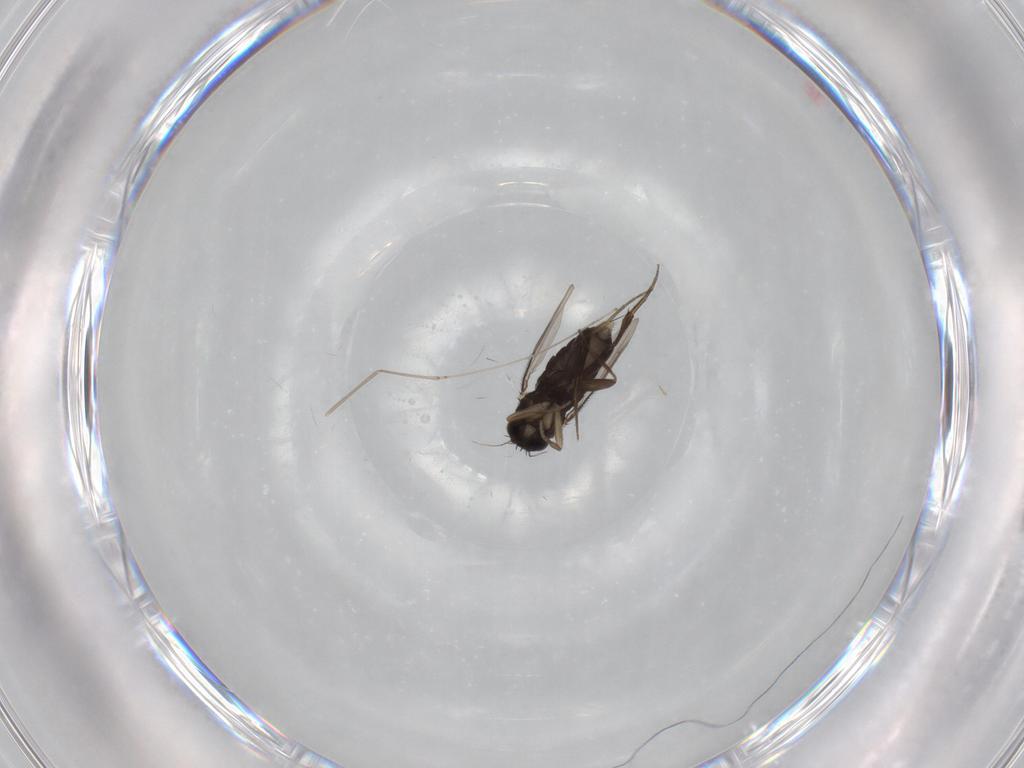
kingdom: Animalia
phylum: Arthropoda
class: Insecta
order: Diptera
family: Phoridae
